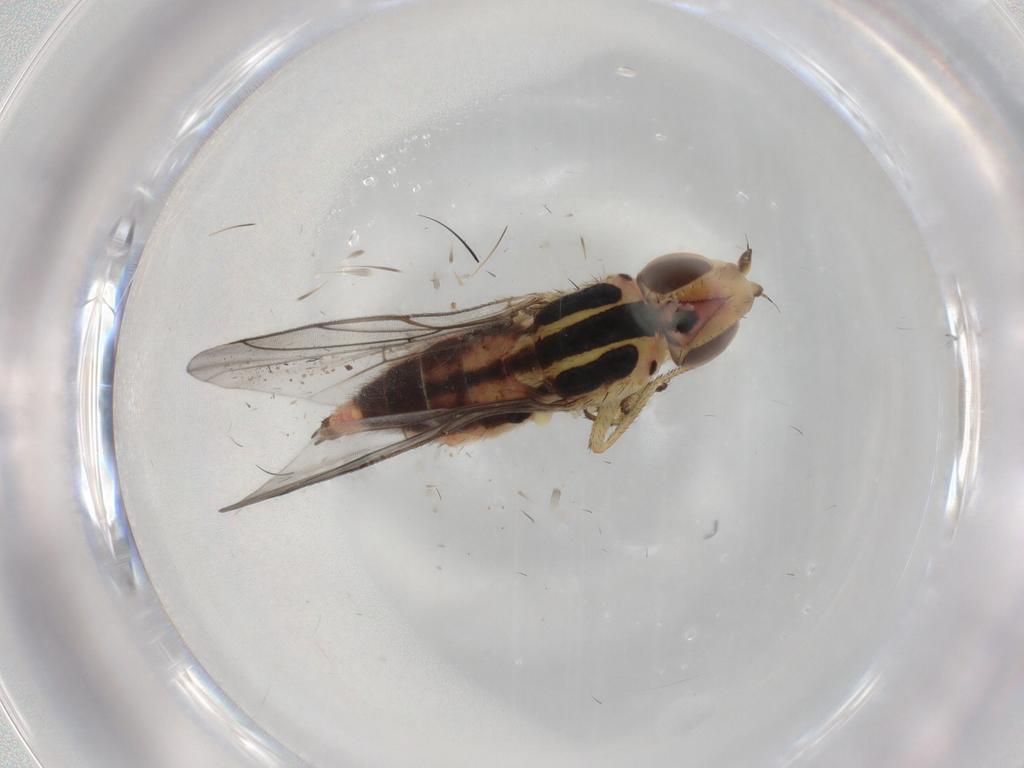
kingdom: Animalia
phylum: Arthropoda
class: Insecta
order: Diptera
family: Chloropidae
